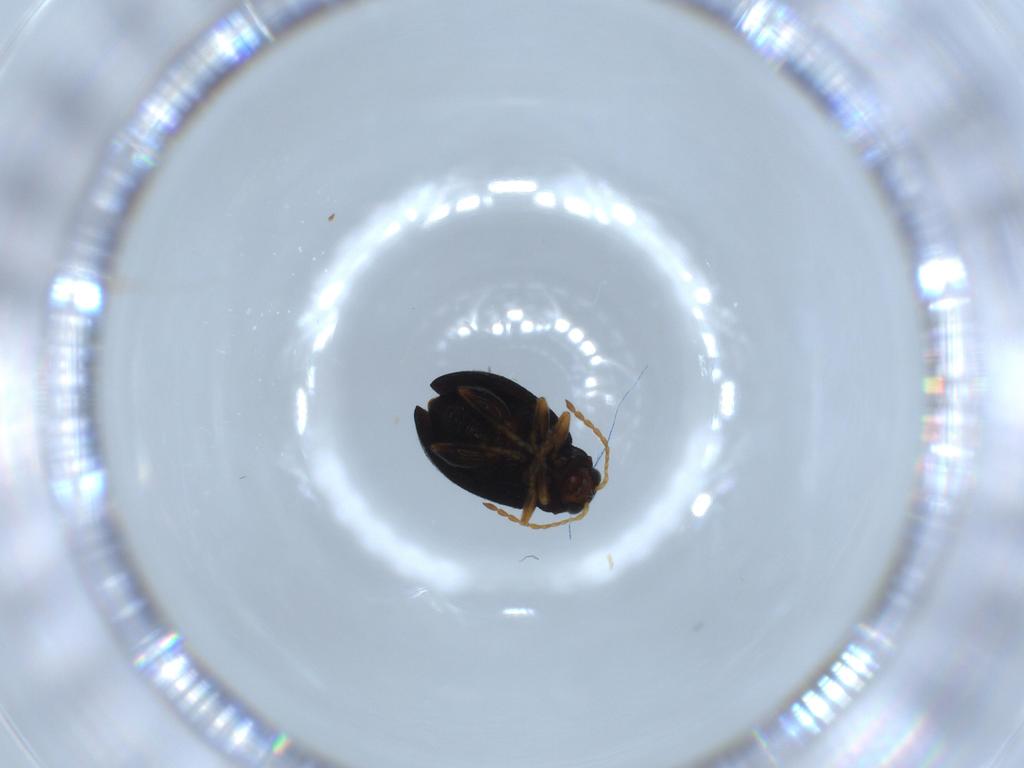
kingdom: Animalia
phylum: Arthropoda
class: Insecta
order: Coleoptera
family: Chrysomelidae
